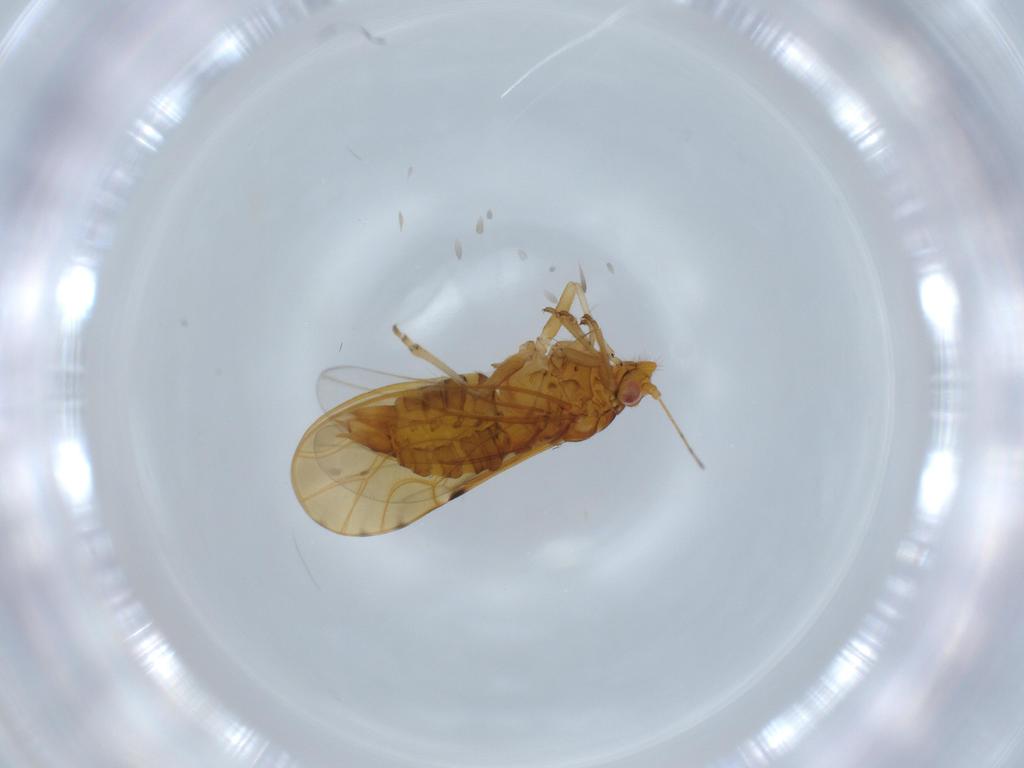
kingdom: Animalia
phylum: Arthropoda
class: Insecta
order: Hemiptera
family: Psylloidea_incertae_sedis
